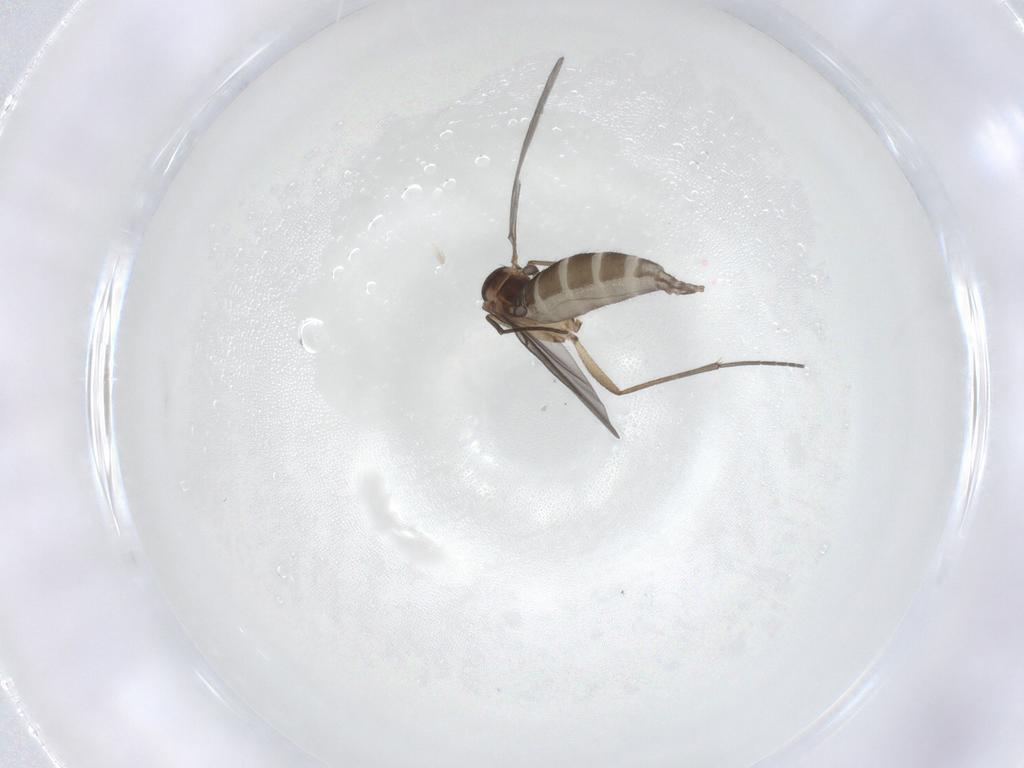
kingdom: Animalia
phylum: Arthropoda
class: Insecta
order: Diptera
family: Sciaridae
